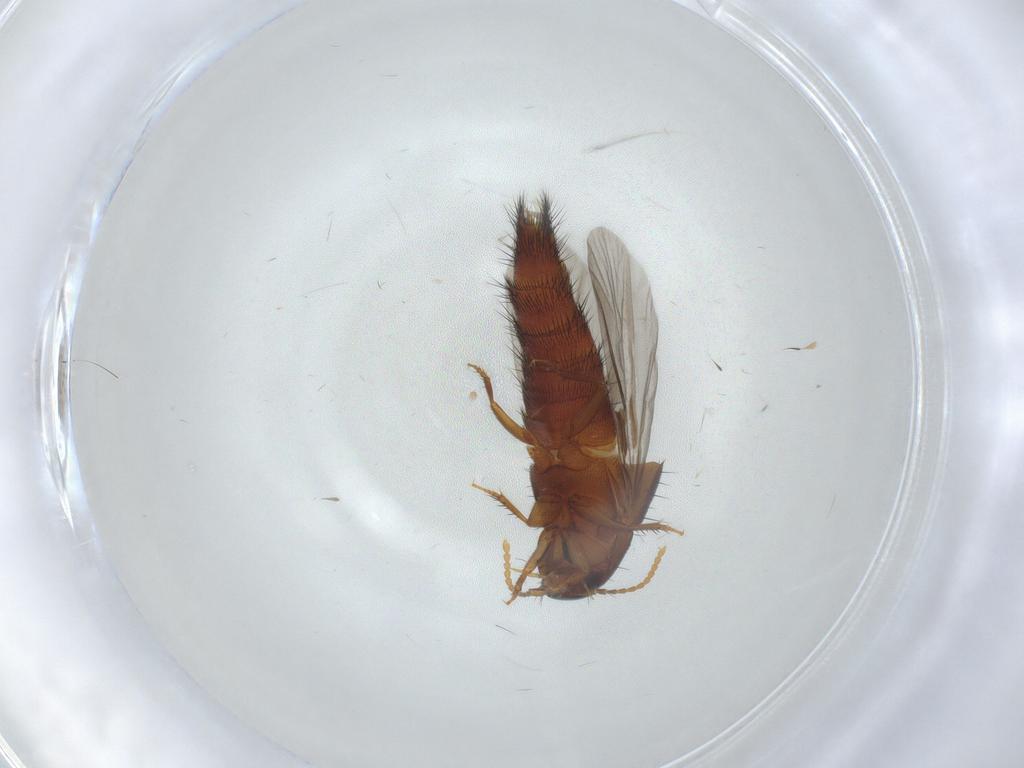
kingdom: Animalia
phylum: Arthropoda
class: Insecta
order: Coleoptera
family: Staphylinidae
